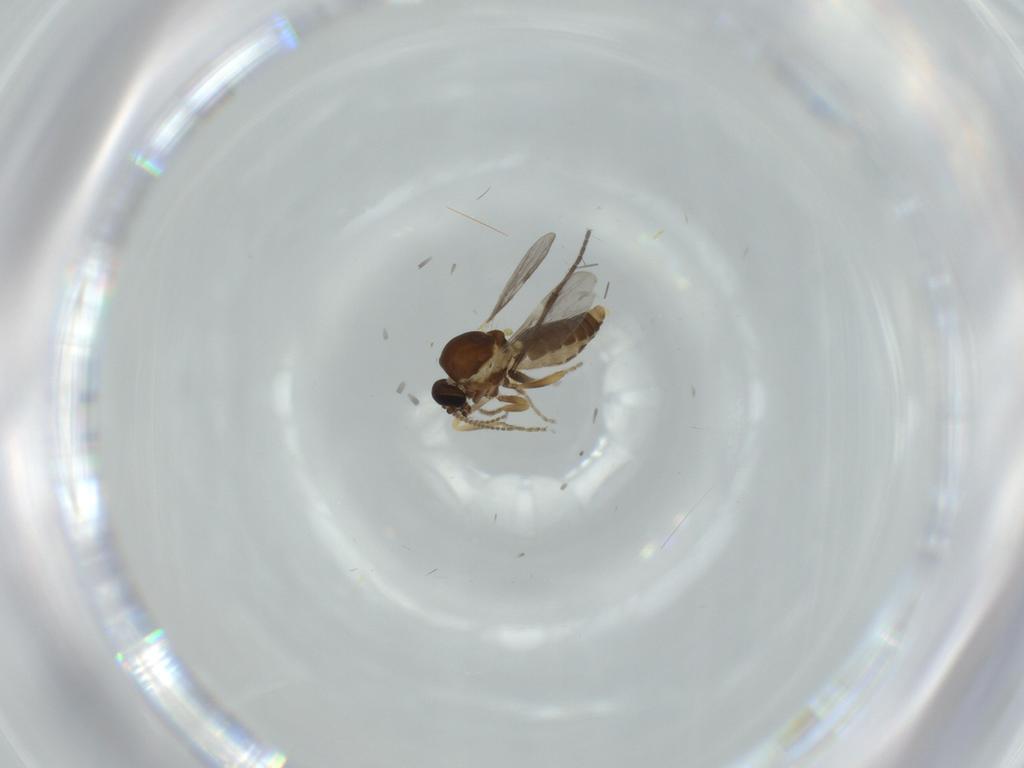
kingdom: Animalia
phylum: Arthropoda
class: Insecta
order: Diptera
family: Ceratopogonidae
